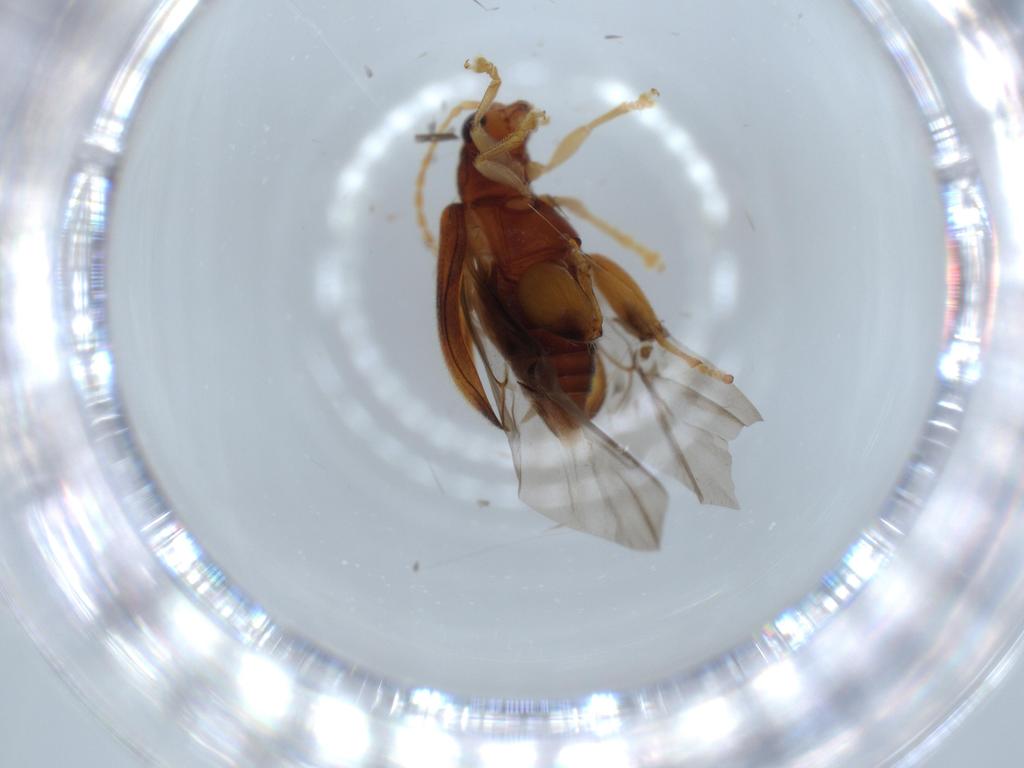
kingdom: Animalia
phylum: Arthropoda
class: Insecta
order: Coleoptera
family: Chrysomelidae
